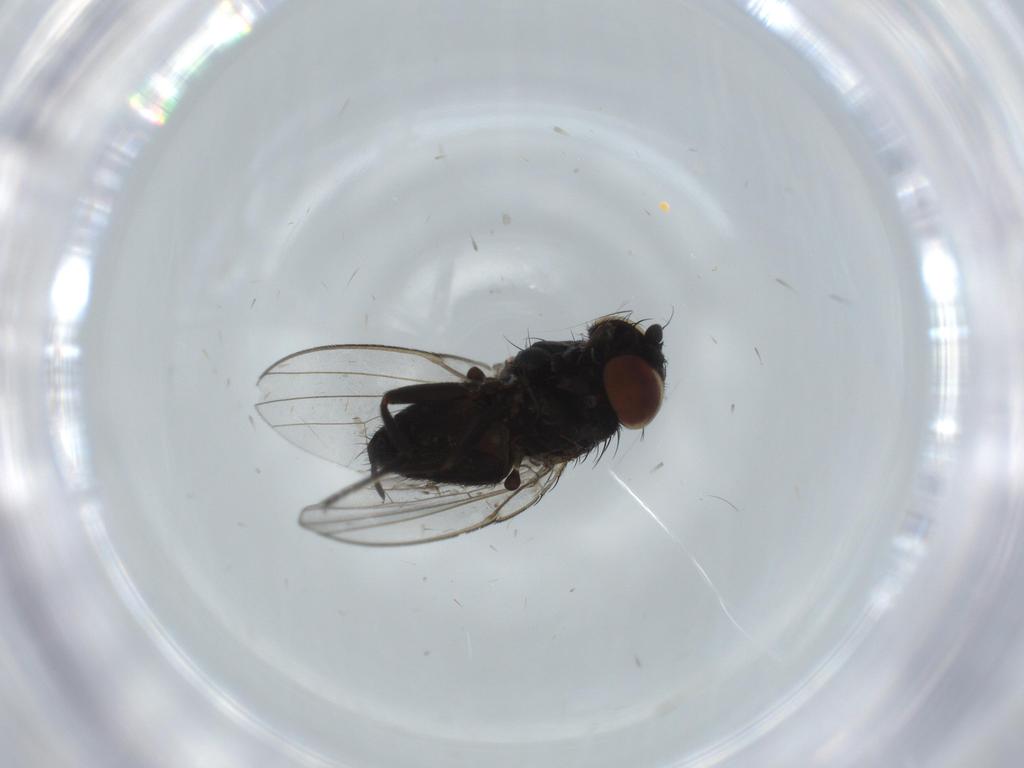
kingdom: Animalia
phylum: Arthropoda
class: Insecta
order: Diptera
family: Milichiidae
